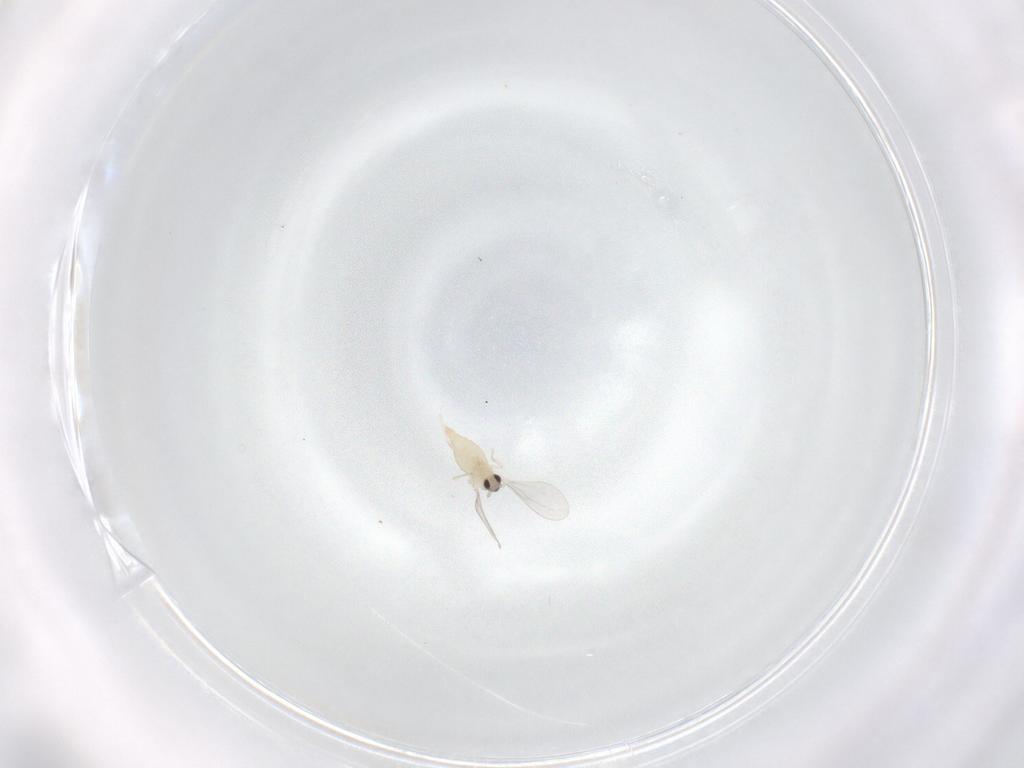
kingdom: Animalia
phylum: Arthropoda
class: Insecta
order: Diptera
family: Cecidomyiidae
